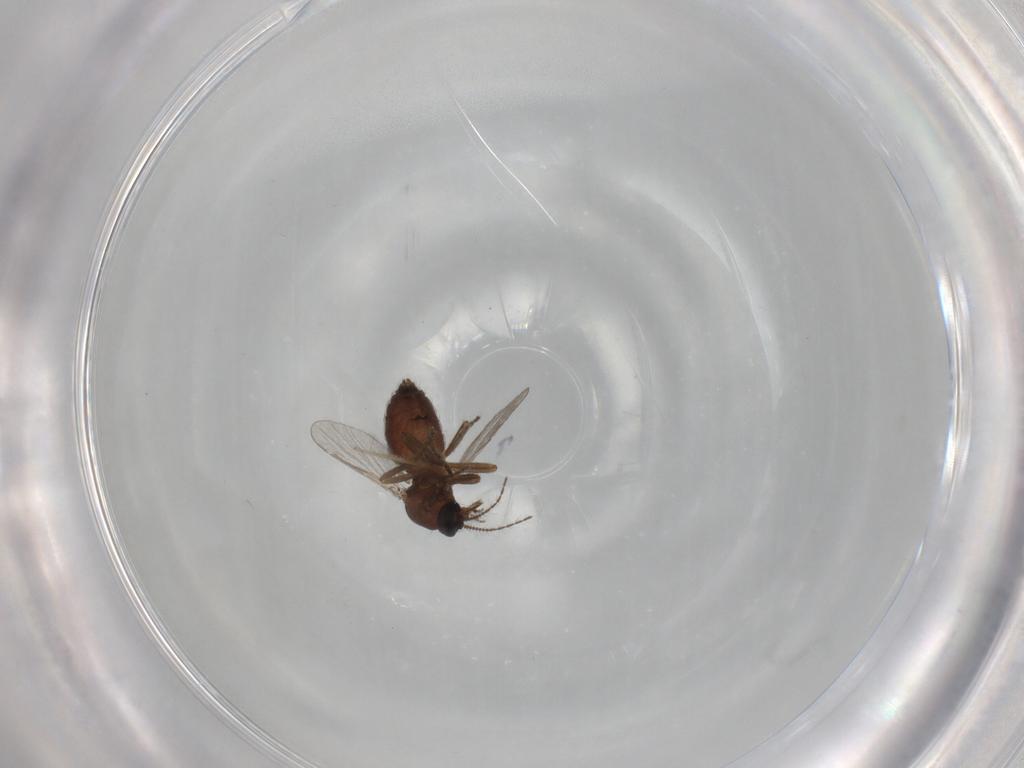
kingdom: Animalia
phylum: Arthropoda
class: Insecta
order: Diptera
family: Ceratopogonidae
